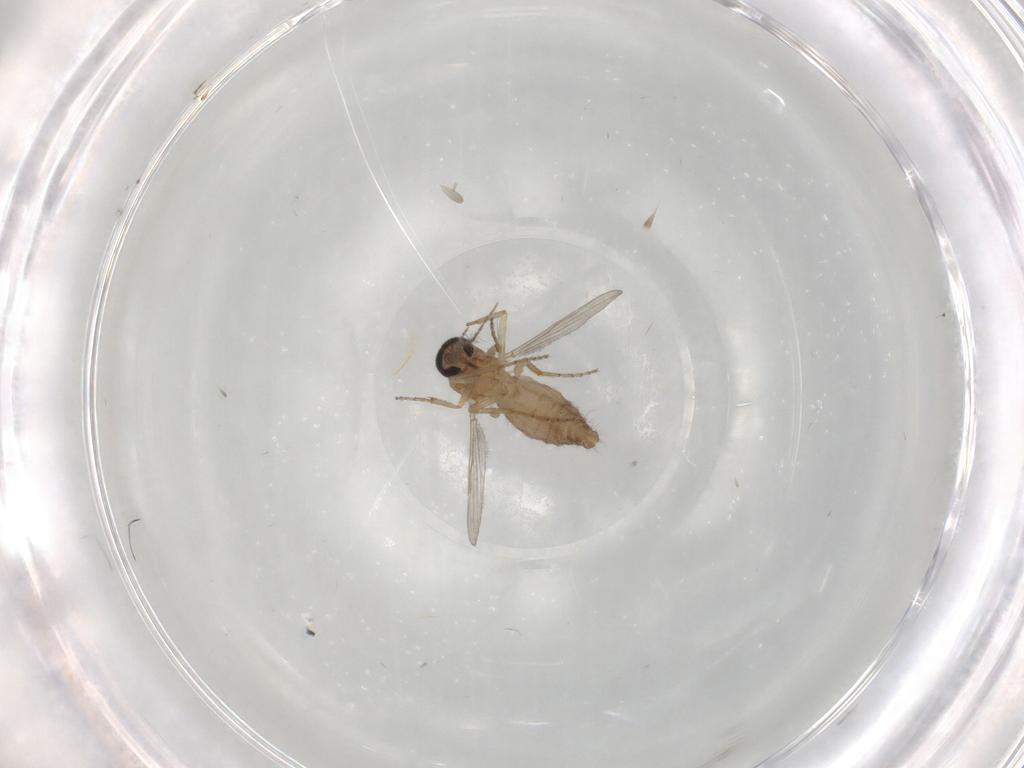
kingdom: Animalia
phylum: Arthropoda
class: Insecta
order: Diptera
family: Ceratopogonidae
